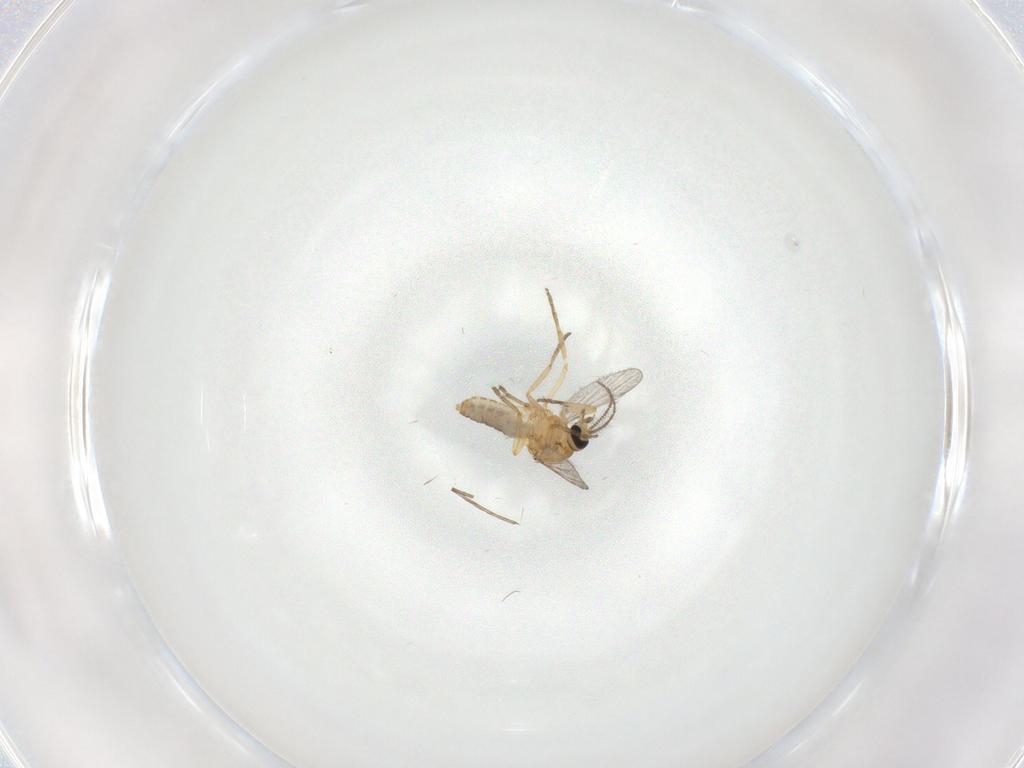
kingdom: Animalia
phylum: Arthropoda
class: Insecta
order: Diptera
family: Ceratopogonidae
